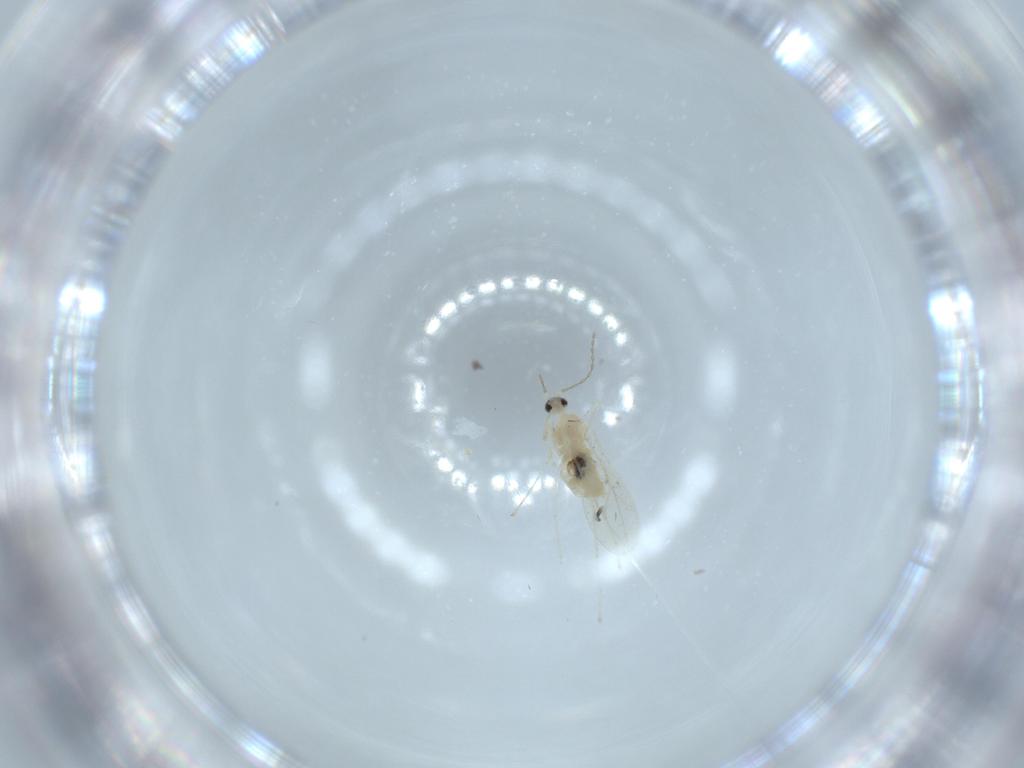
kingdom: Animalia
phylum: Arthropoda
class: Insecta
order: Diptera
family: Cecidomyiidae
